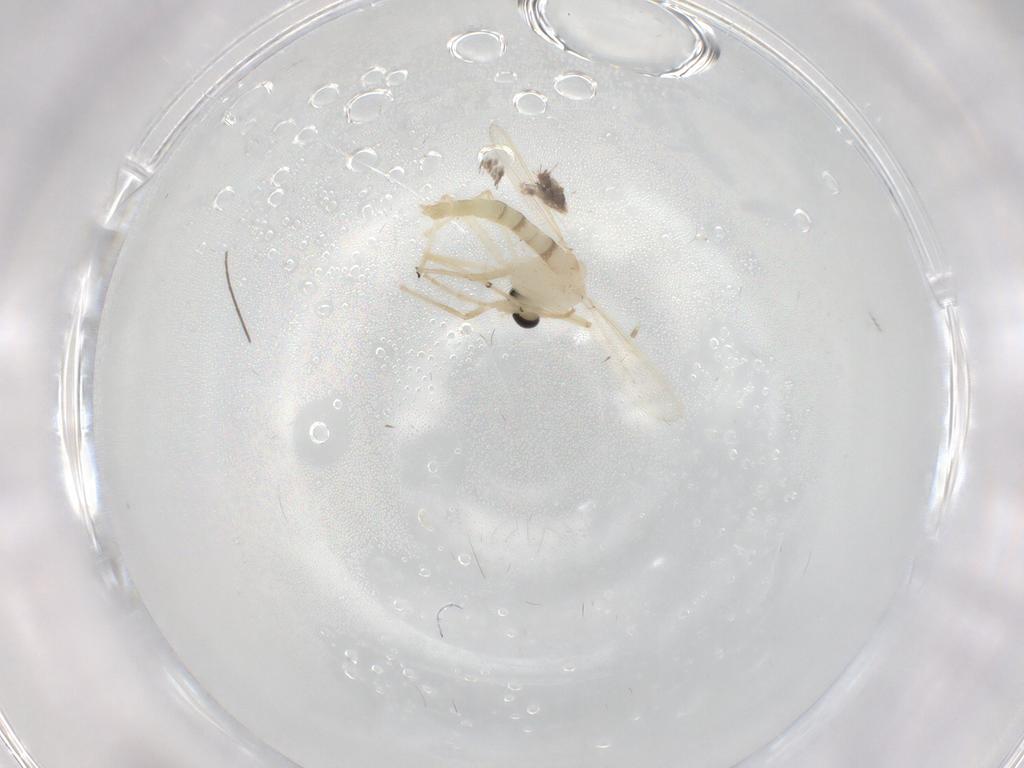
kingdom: Animalia
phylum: Arthropoda
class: Insecta
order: Diptera
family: Chironomidae
